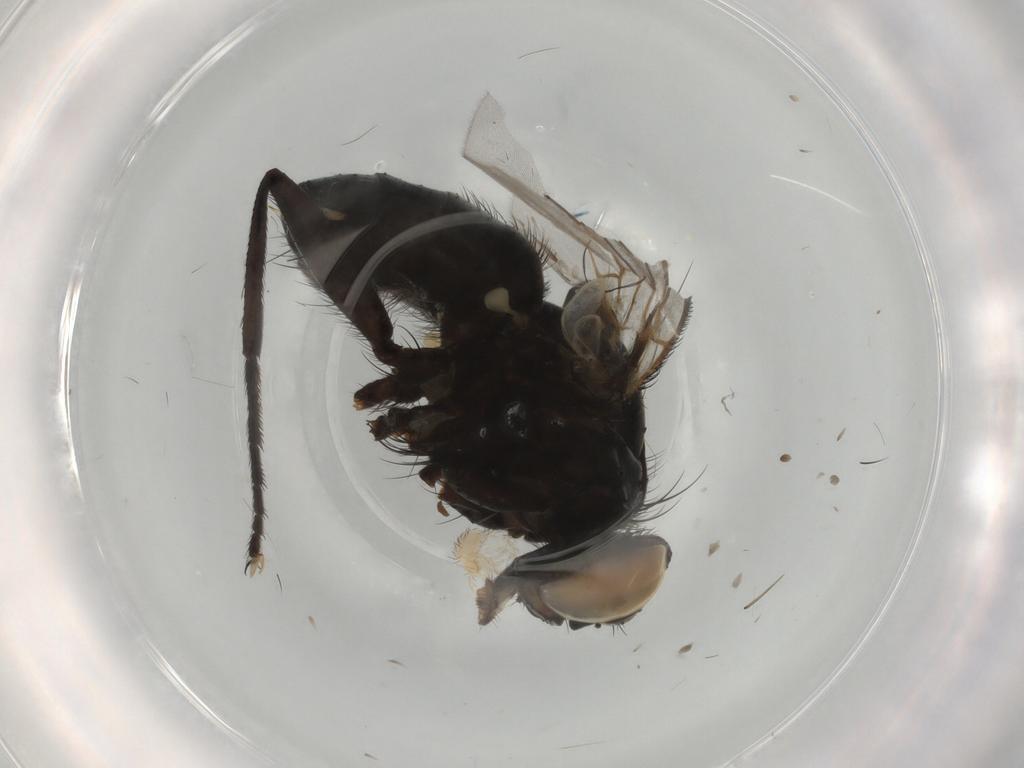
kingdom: Animalia
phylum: Arthropoda
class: Insecta
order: Diptera
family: Muscidae
